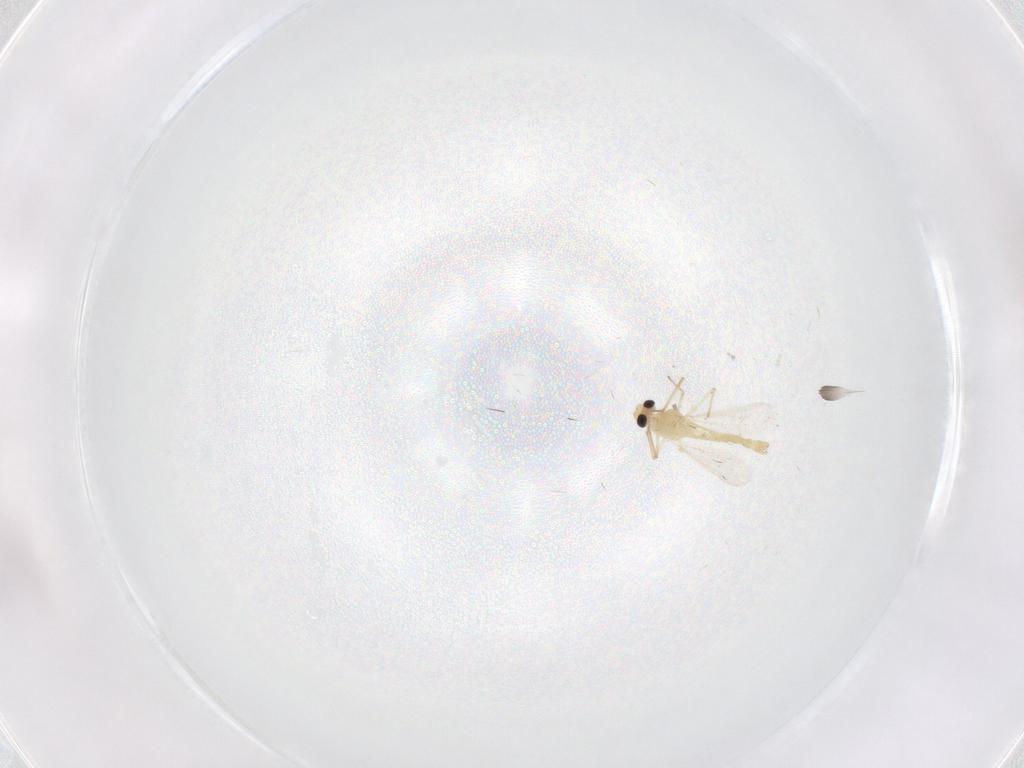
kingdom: Animalia
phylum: Arthropoda
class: Insecta
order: Diptera
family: Chironomidae
